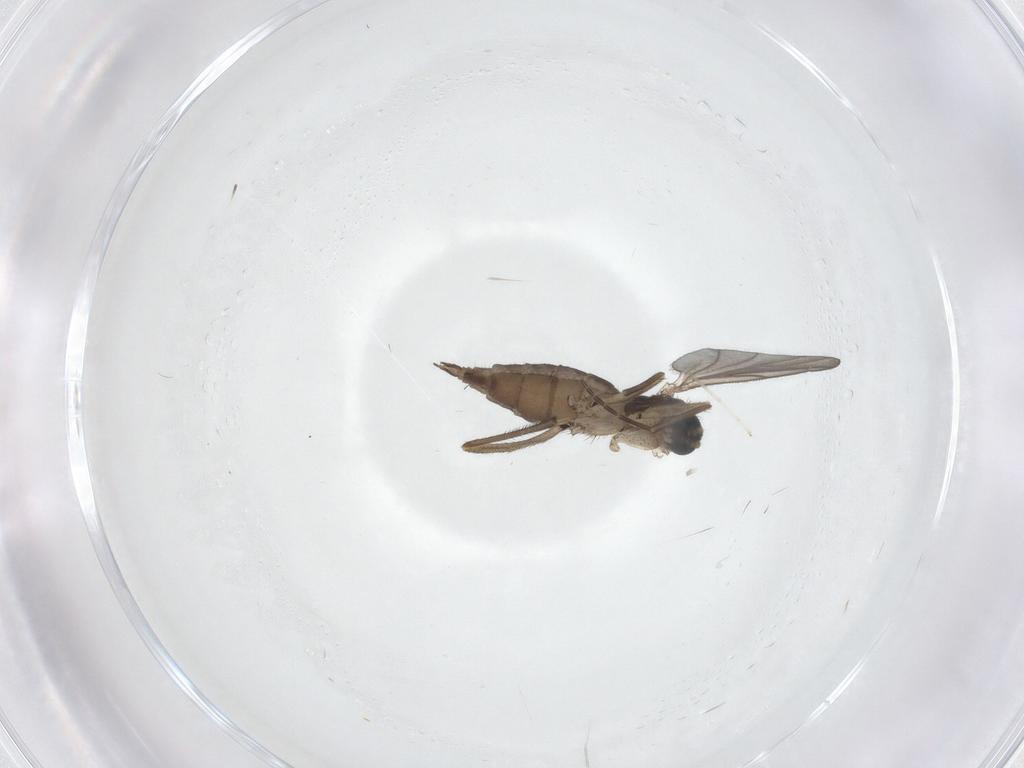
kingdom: Animalia
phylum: Arthropoda
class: Insecta
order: Diptera
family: Sciaridae
